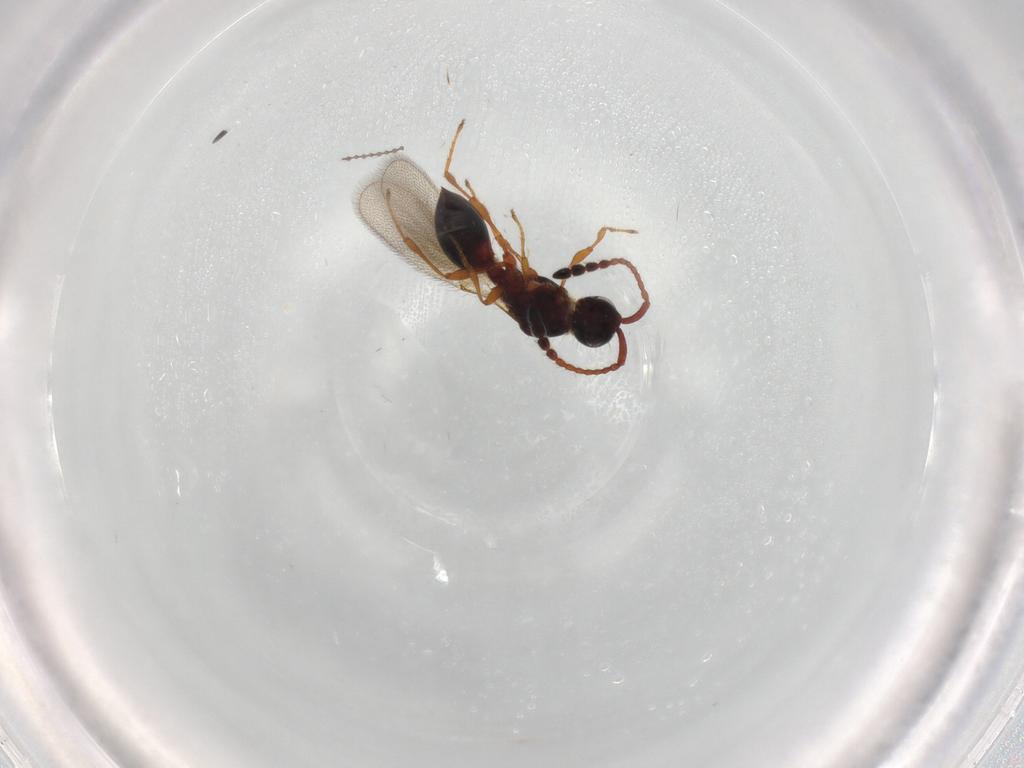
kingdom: Animalia
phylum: Arthropoda
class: Insecta
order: Hymenoptera
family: Diapriidae
